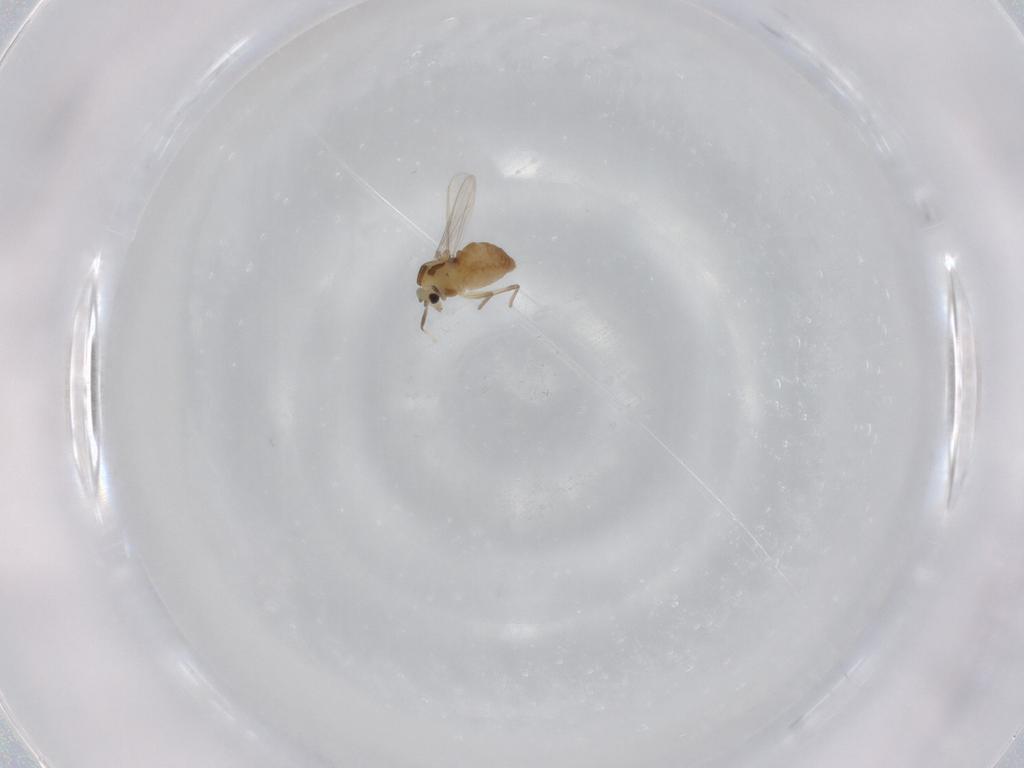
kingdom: Animalia
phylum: Arthropoda
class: Insecta
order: Diptera
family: Chironomidae
